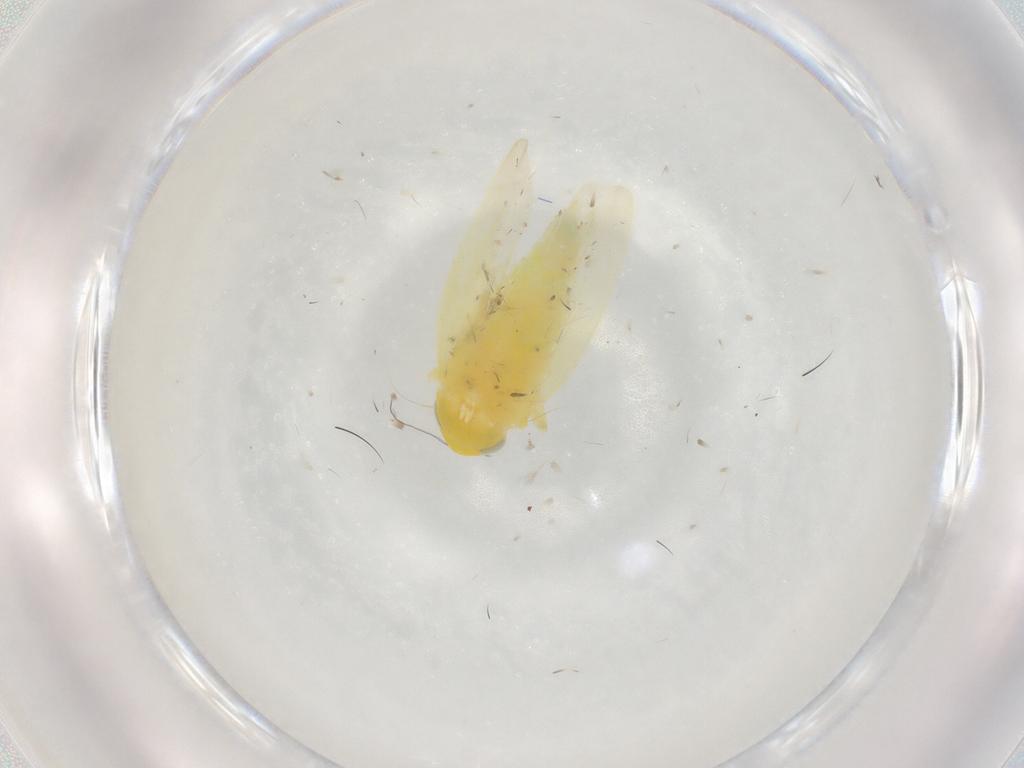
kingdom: Animalia
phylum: Arthropoda
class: Insecta
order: Hemiptera
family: Cicadellidae
